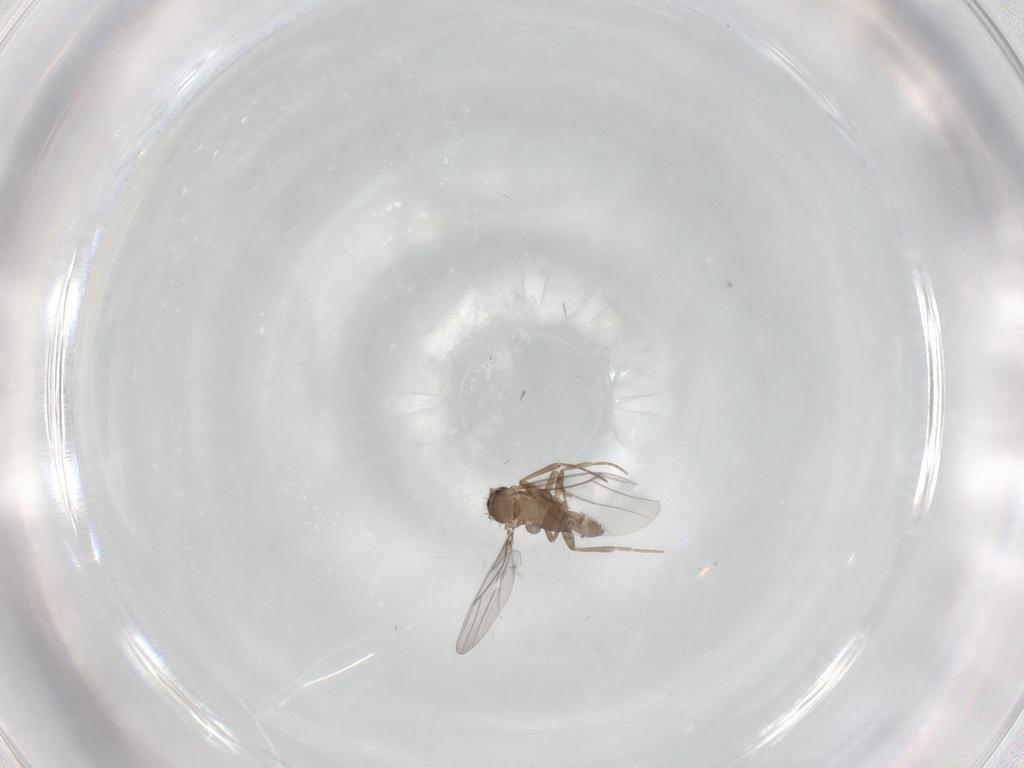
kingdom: Animalia
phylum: Arthropoda
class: Insecta
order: Diptera
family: Dolichopodidae
